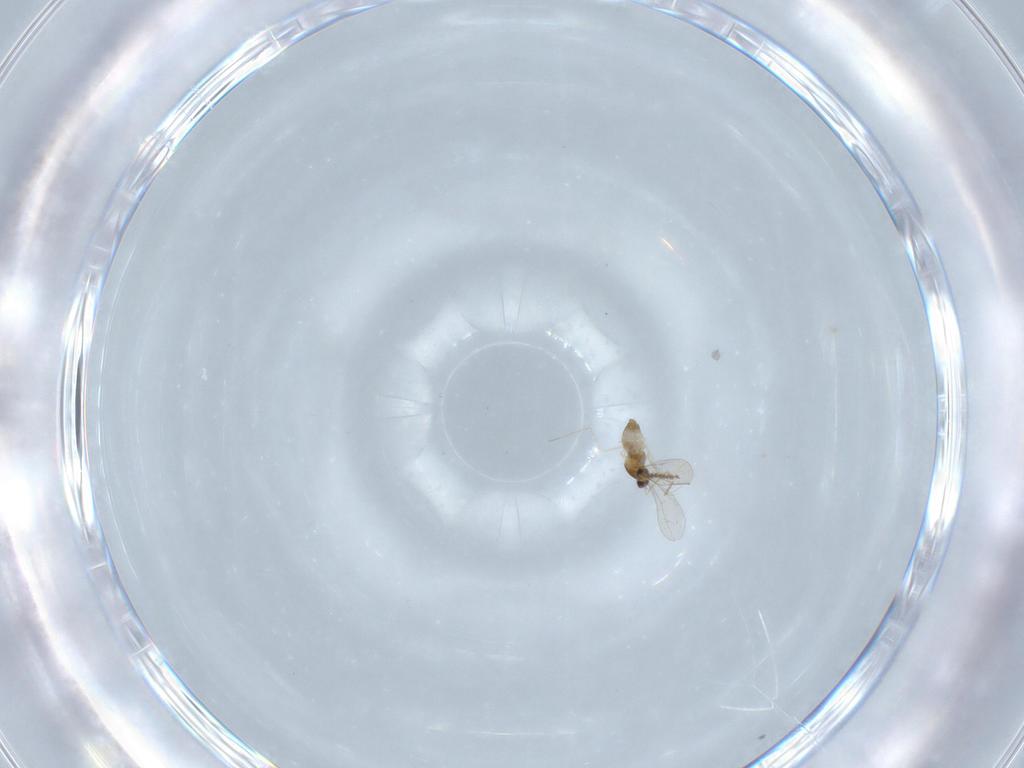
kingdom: Animalia
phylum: Arthropoda
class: Insecta
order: Diptera
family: Cecidomyiidae
